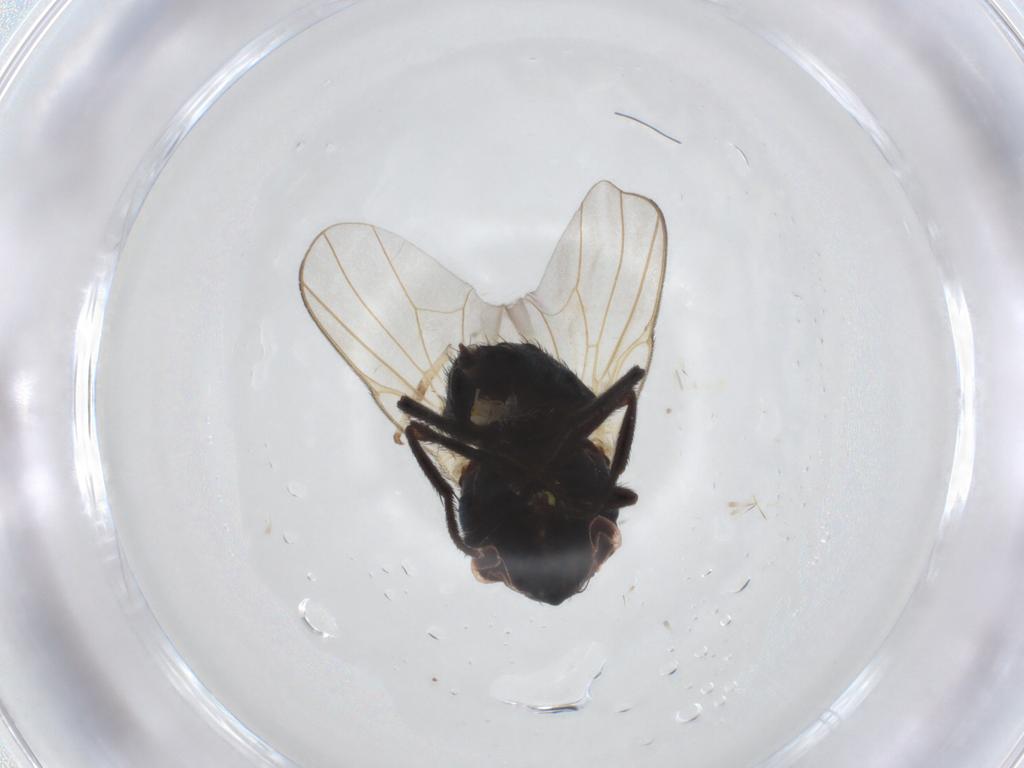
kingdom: Animalia
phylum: Arthropoda
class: Insecta
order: Diptera
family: Lonchaeidae
